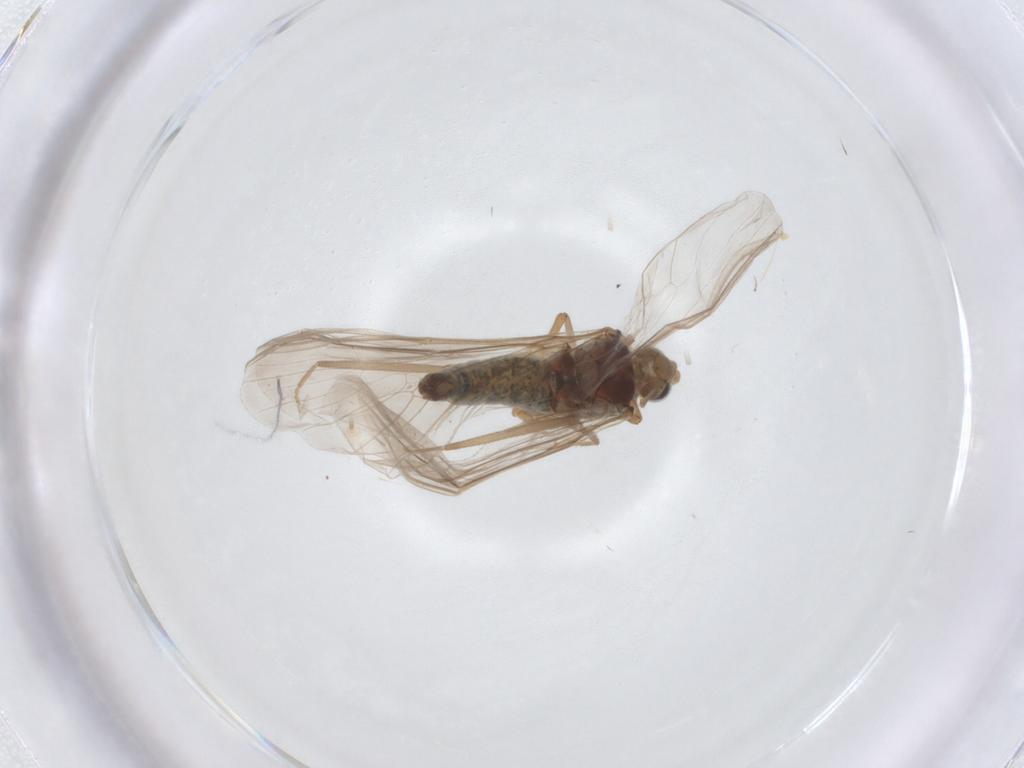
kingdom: Animalia
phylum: Arthropoda
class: Insecta
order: Neuroptera
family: Coniopterygidae
